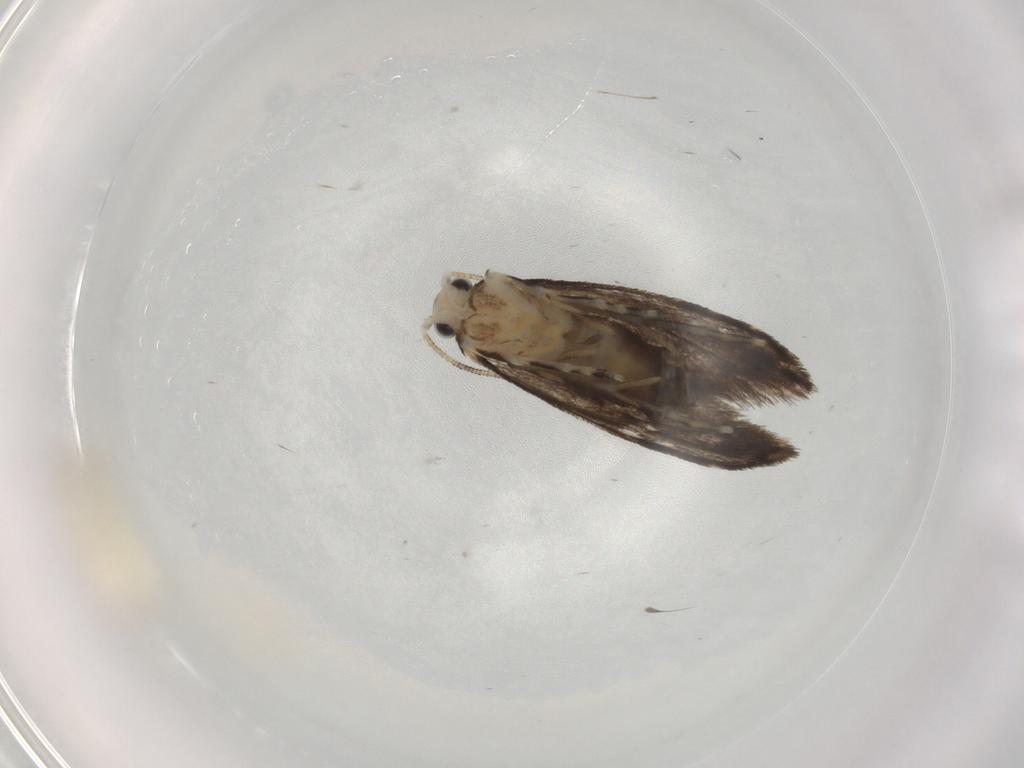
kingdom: Animalia
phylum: Arthropoda
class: Insecta
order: Lepidoptera
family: Tineidae
